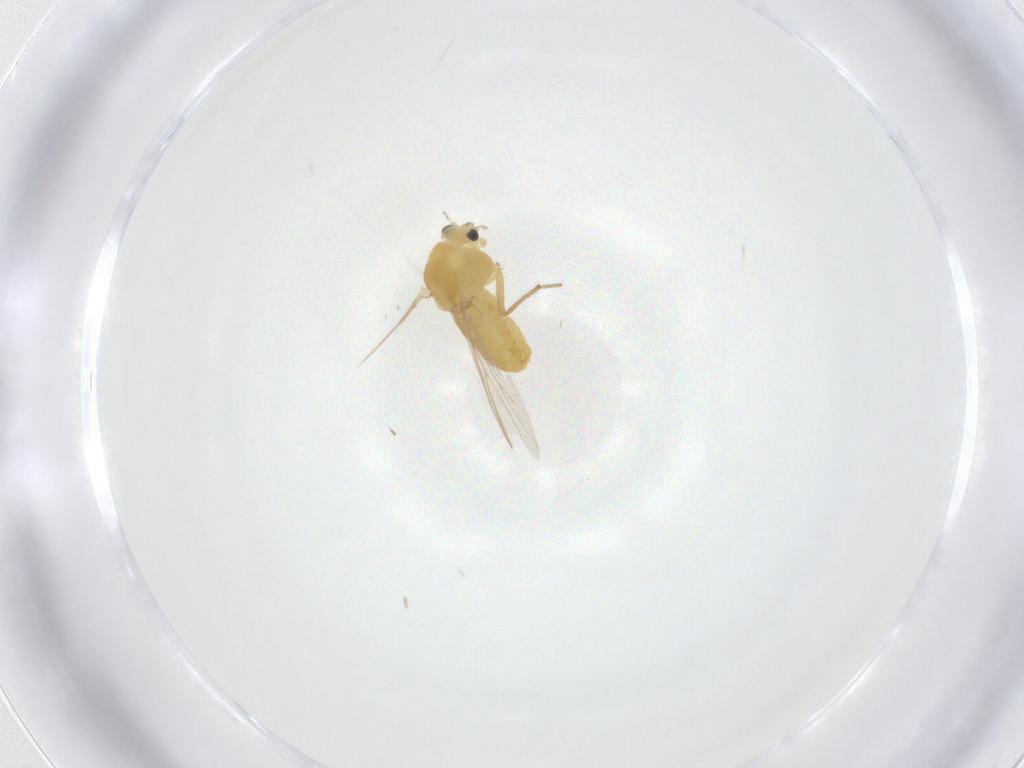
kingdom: Animalia
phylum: Arthropoda
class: Insecta
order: Diptera
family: Chironomidae
